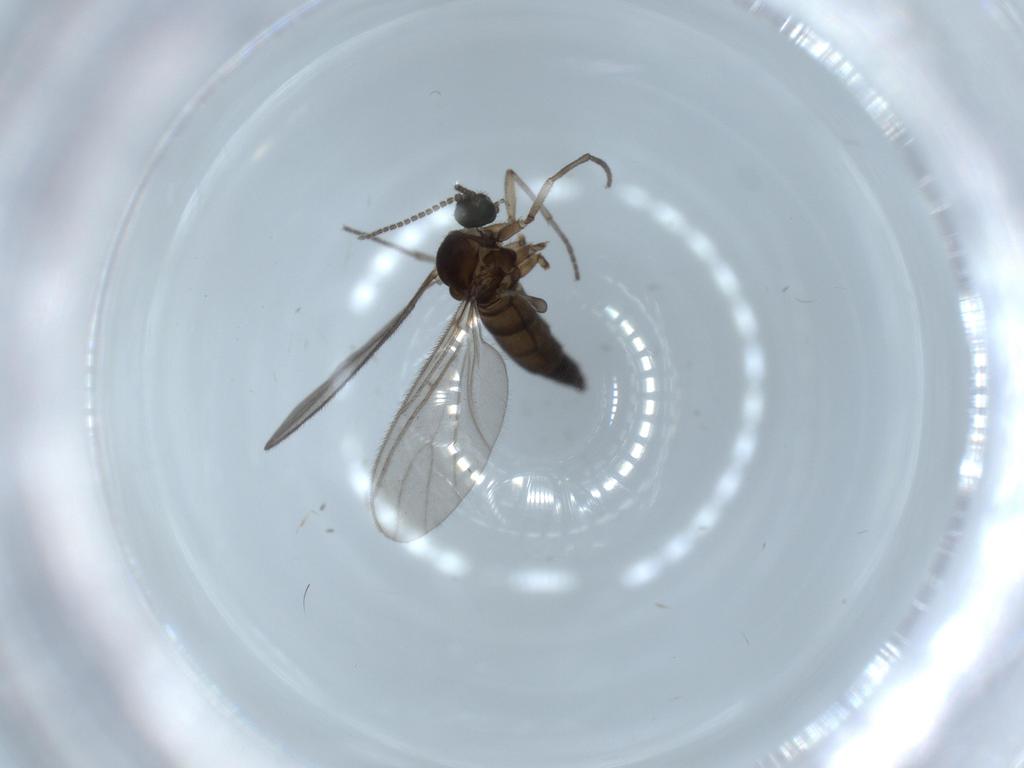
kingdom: Animalia
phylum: Arthropoda
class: Insecta
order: Diptera
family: Sciaridae
